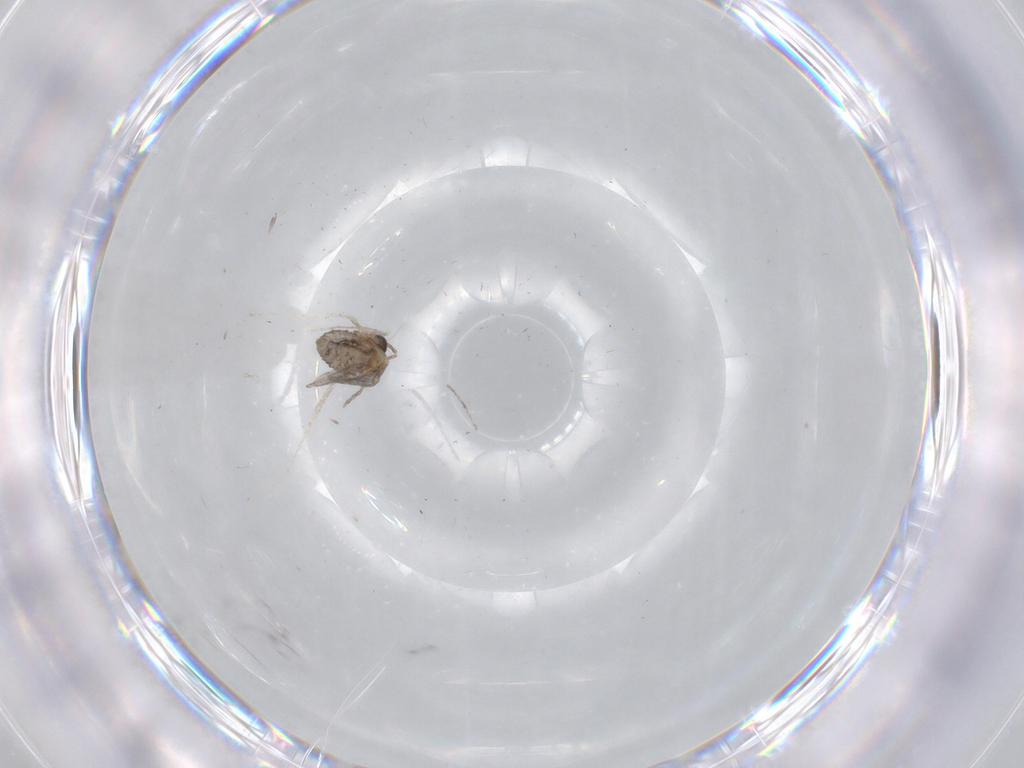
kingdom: Animalia
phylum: Arthropoda
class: Insecta
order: Diptera
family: Cecidomyiidae
